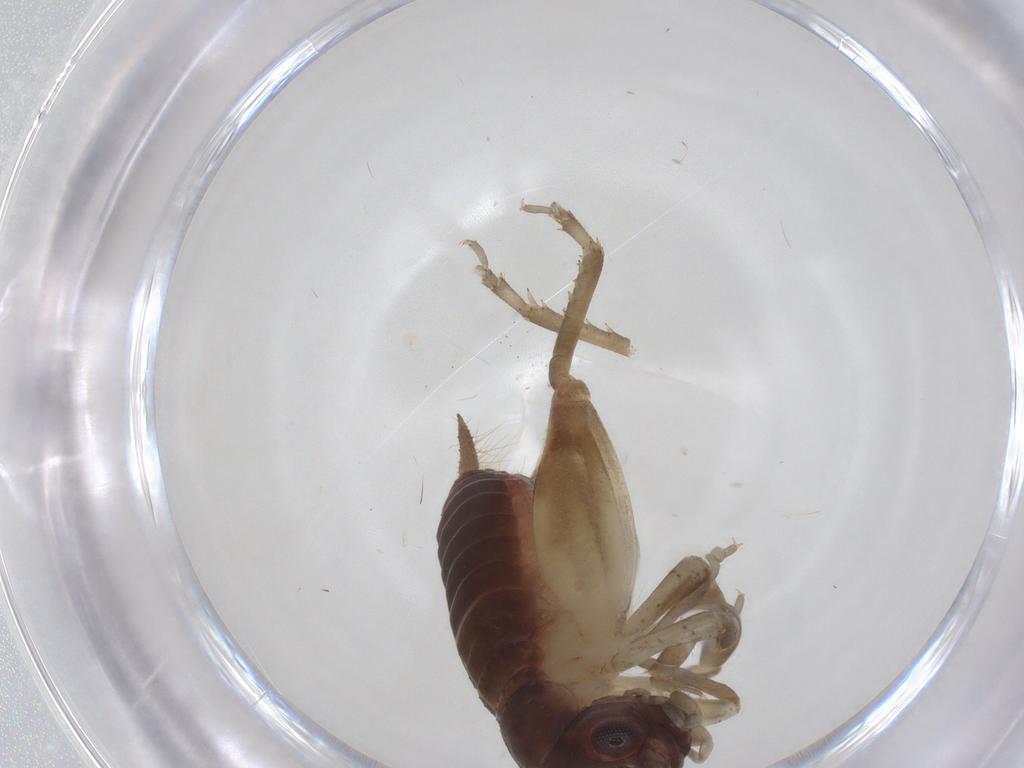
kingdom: Animalia
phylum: Arthropoda
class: Insecta
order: Orthoptera
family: Gryllidae
